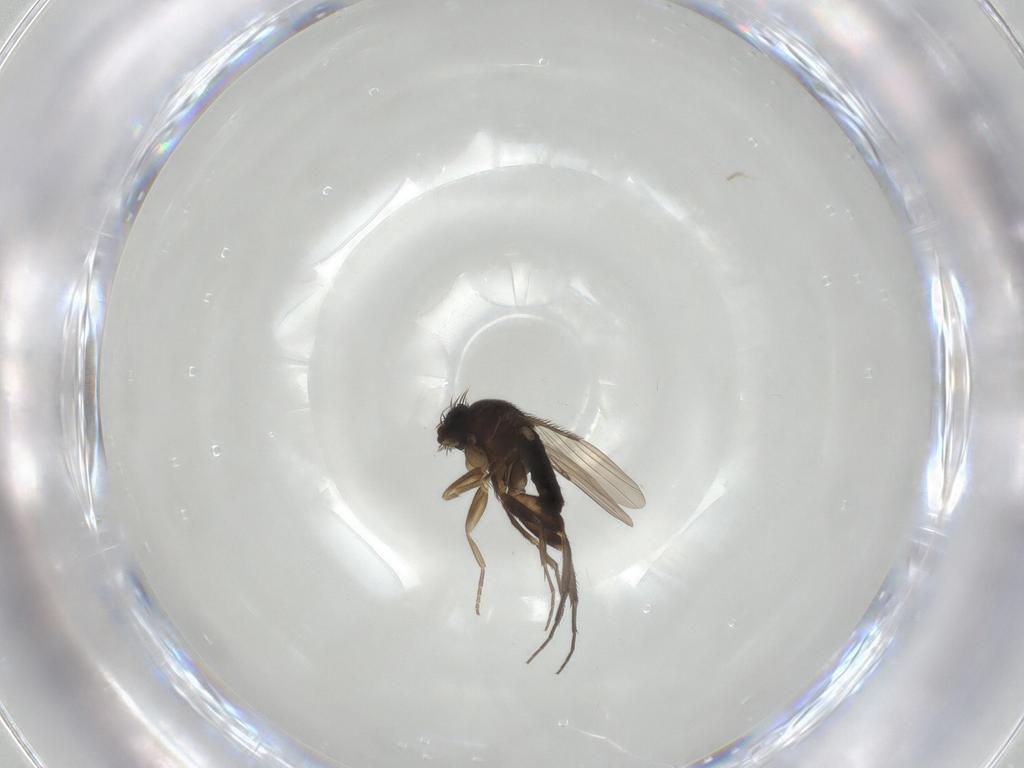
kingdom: Animalia
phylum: Arthropoda
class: Insecta
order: Diptera
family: Phoridae
